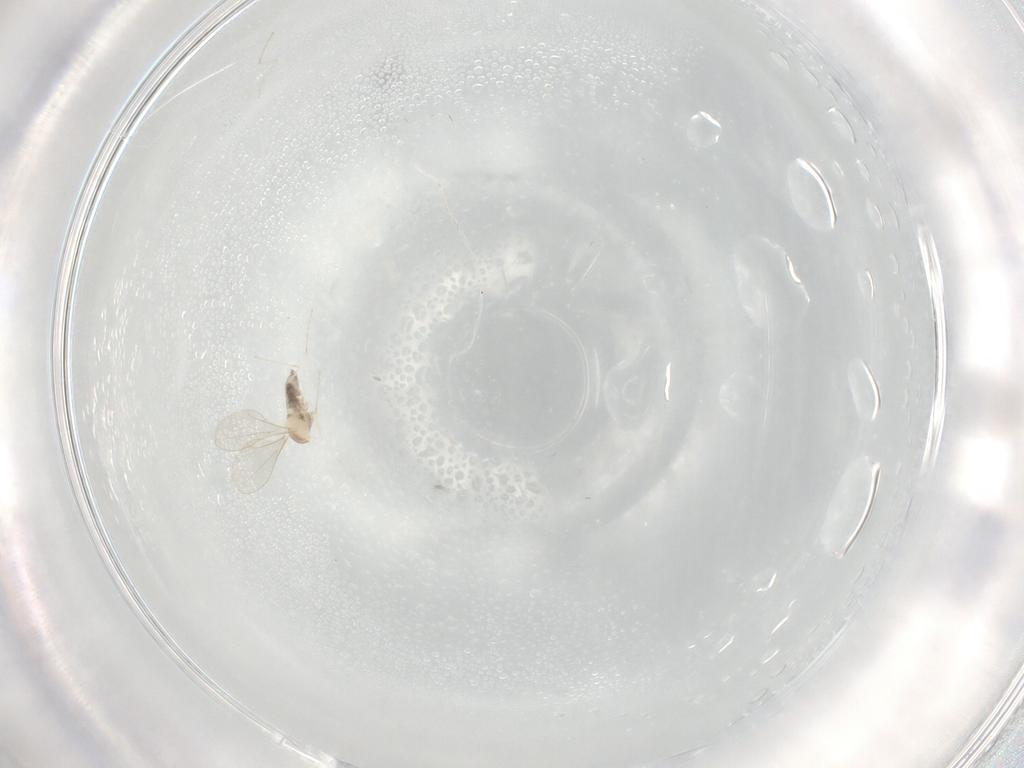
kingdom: Animalia
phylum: Arthropoda
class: Insecta
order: Diptera
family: Cecidomyiidae
